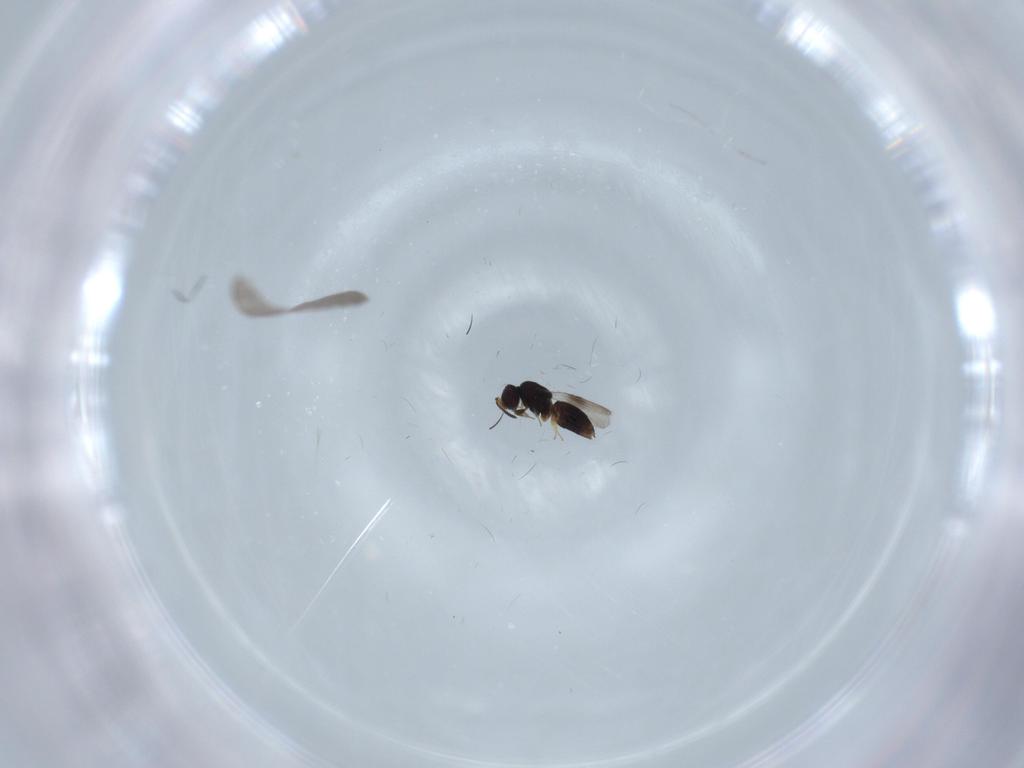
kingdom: Animalia
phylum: Arthropoda
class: Insecta
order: Hymenoptera
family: Ceraphronidae
